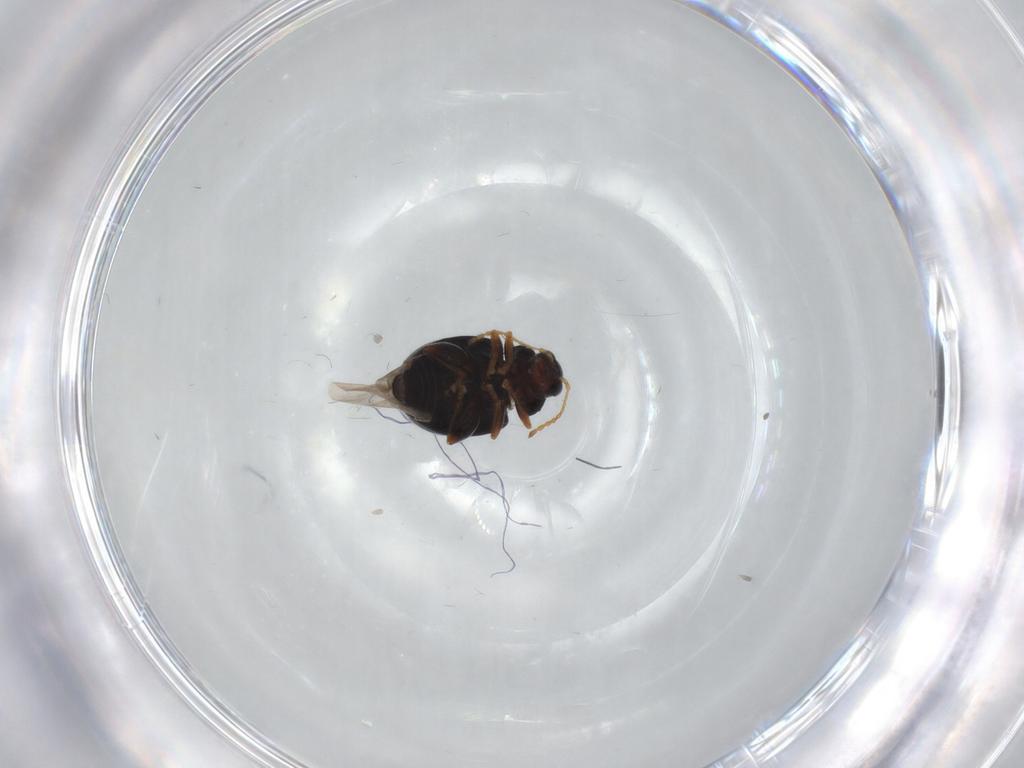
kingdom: Animalia
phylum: Arthropoda
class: Insecta
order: Coleoptera
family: Chrysomelidae
